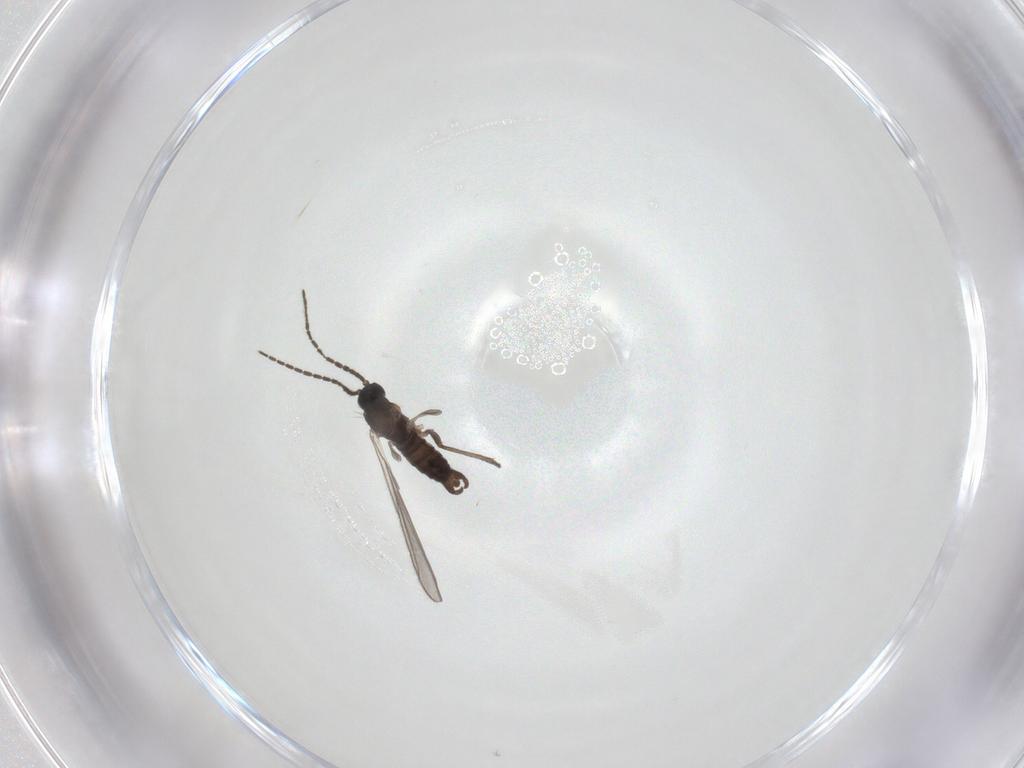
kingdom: Animalia
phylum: Arthropoda
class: Insecta
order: Diptera
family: Sciaridae
